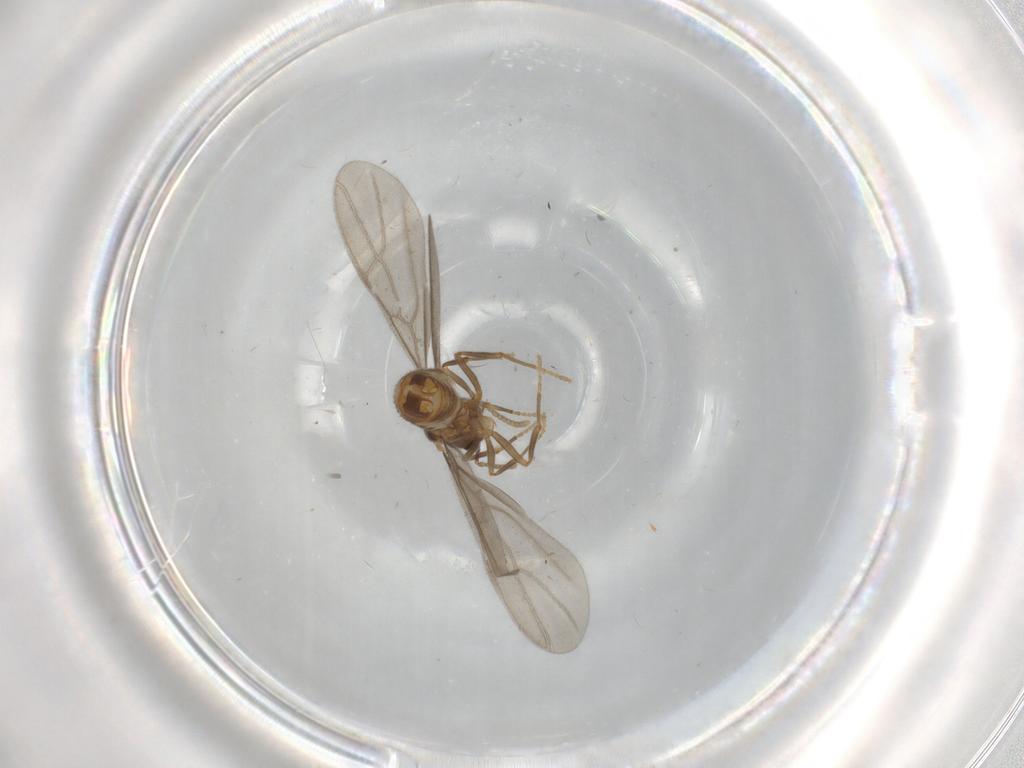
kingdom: Animalia
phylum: Arthropoda
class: Insecta
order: Hymenoptera
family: Formicidae
